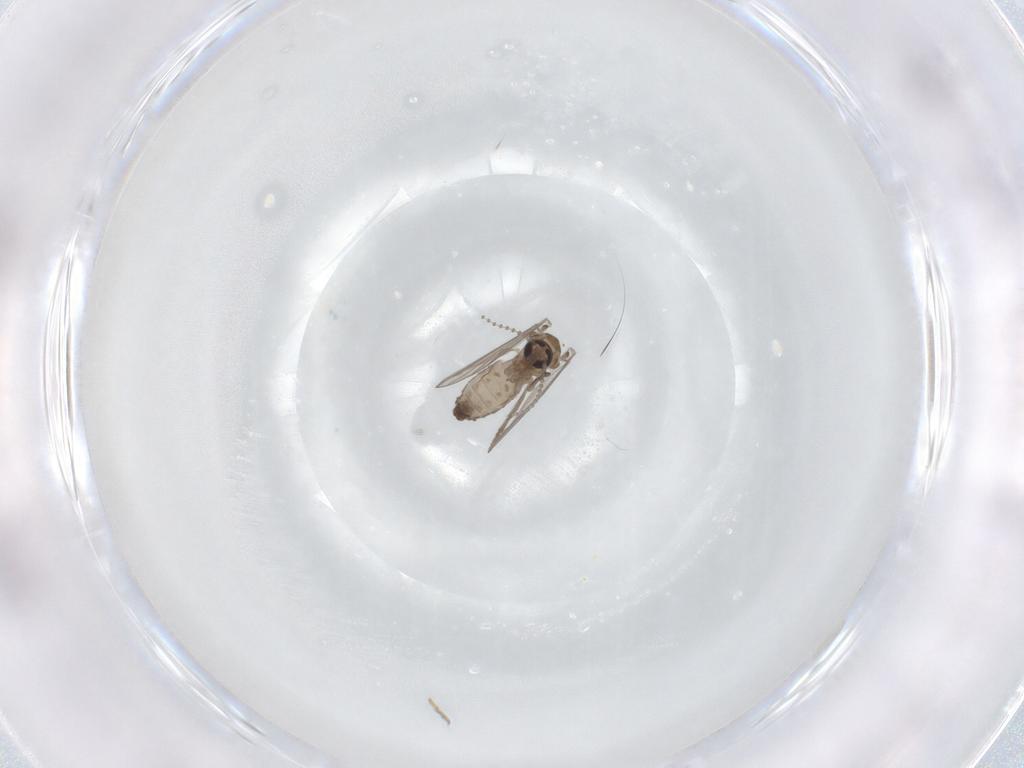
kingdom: Animalia
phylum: Arthropoda
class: Insecta
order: Diptera
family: Psychodidae
